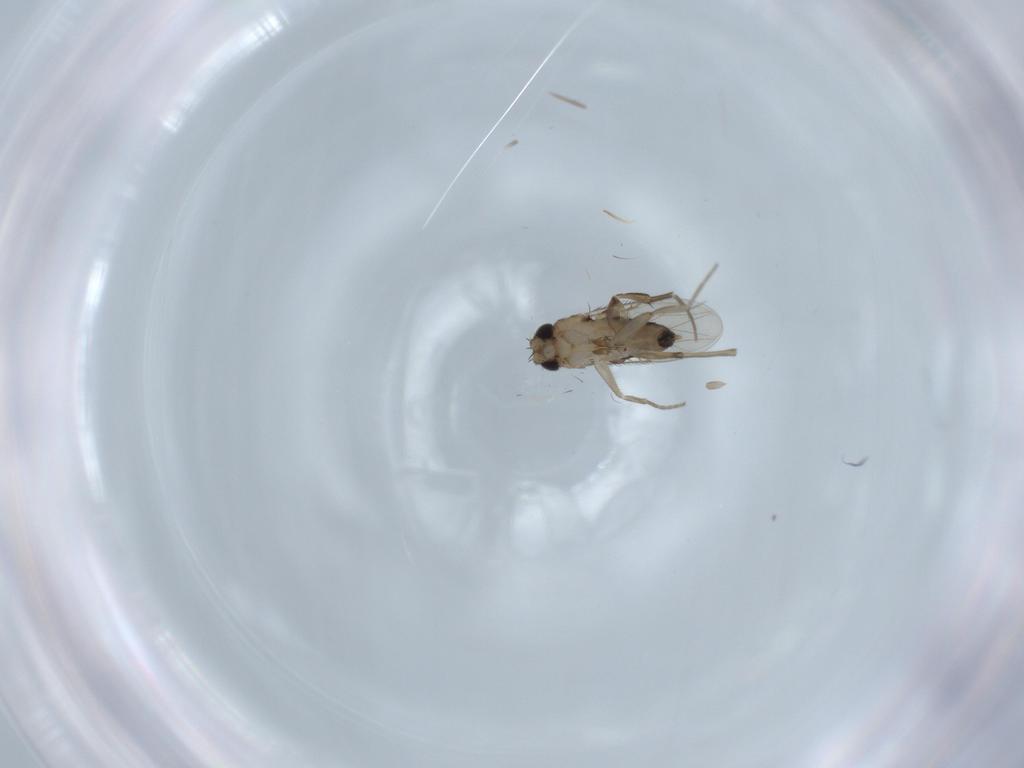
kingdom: Animalia
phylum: Arthropoda
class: Insecta
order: Diptera
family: Phoridae
